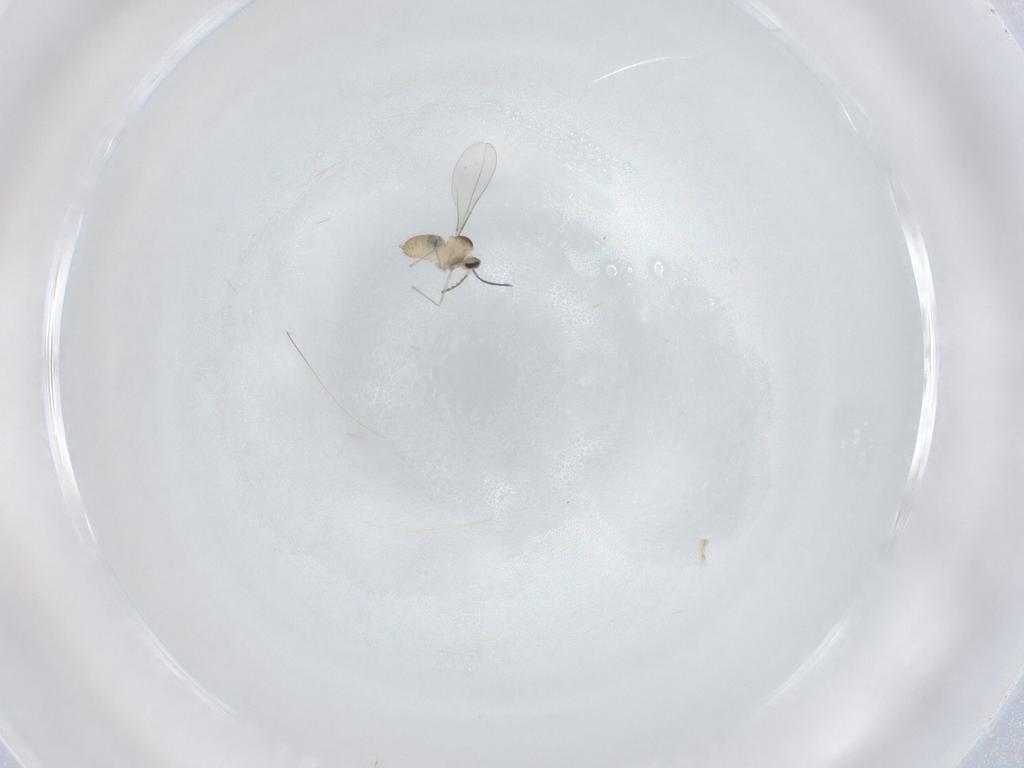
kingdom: Animalia
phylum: Arthropoda
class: Insecta
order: Diptera
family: Cecidomyiidae
